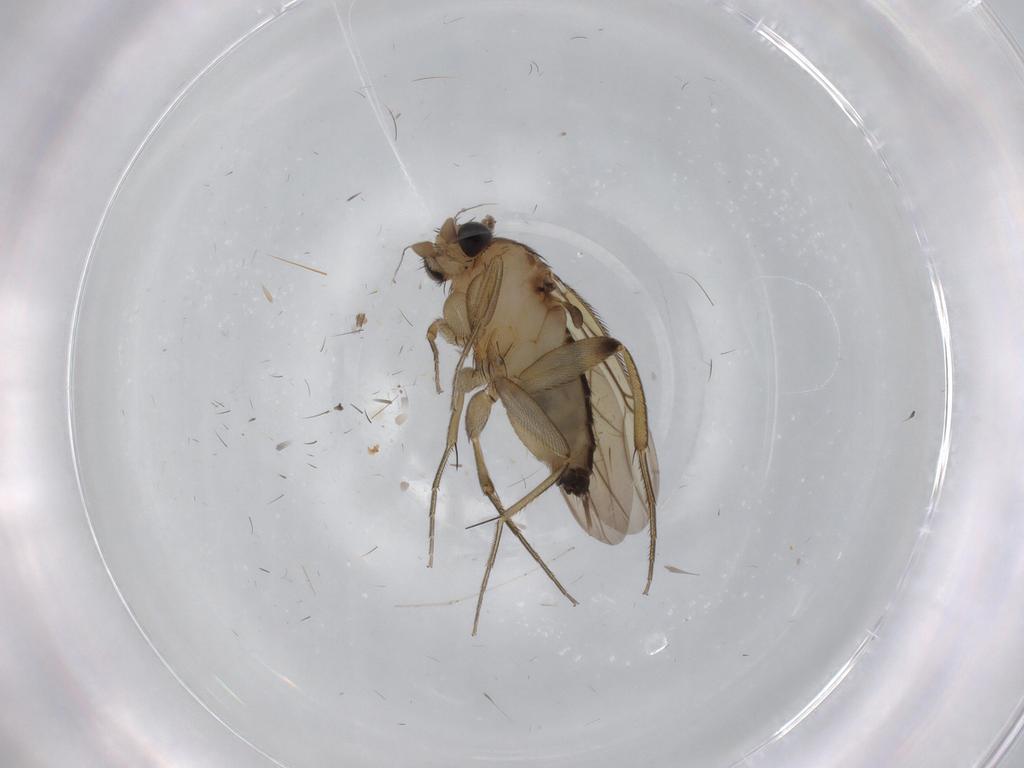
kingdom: Animalia
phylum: Arthropoda
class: Insecta
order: Diptera
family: Phoridae
